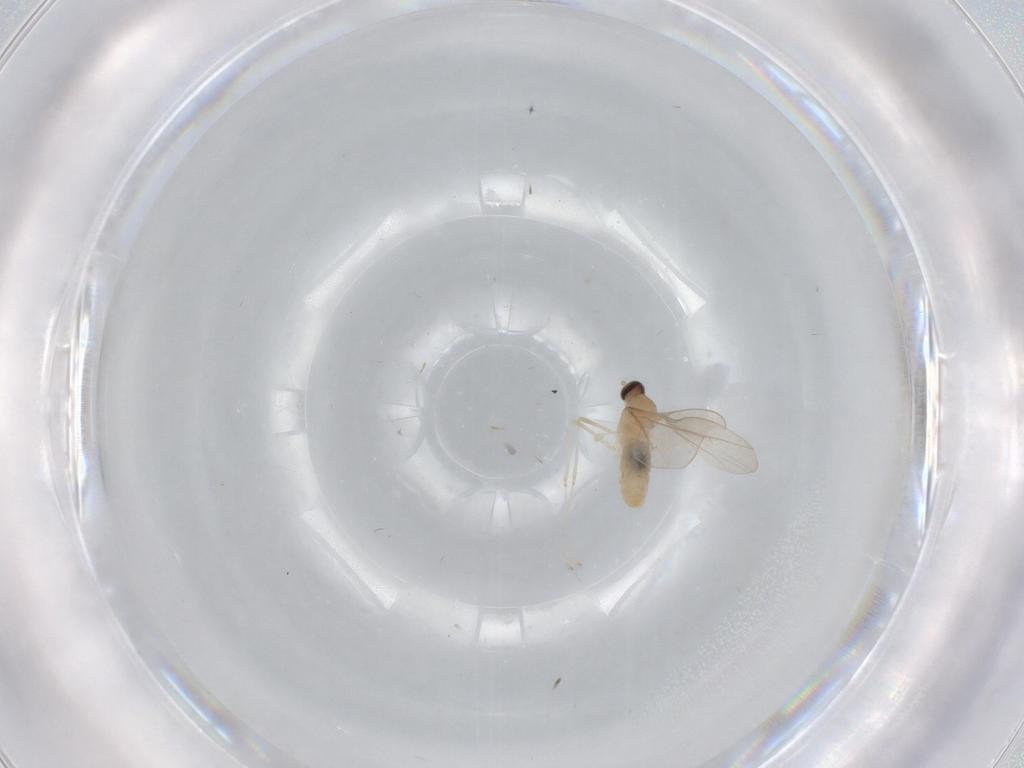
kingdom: Animalia
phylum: Arthropoda
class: Insecta
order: Diptera
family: Cecidomyiidae
